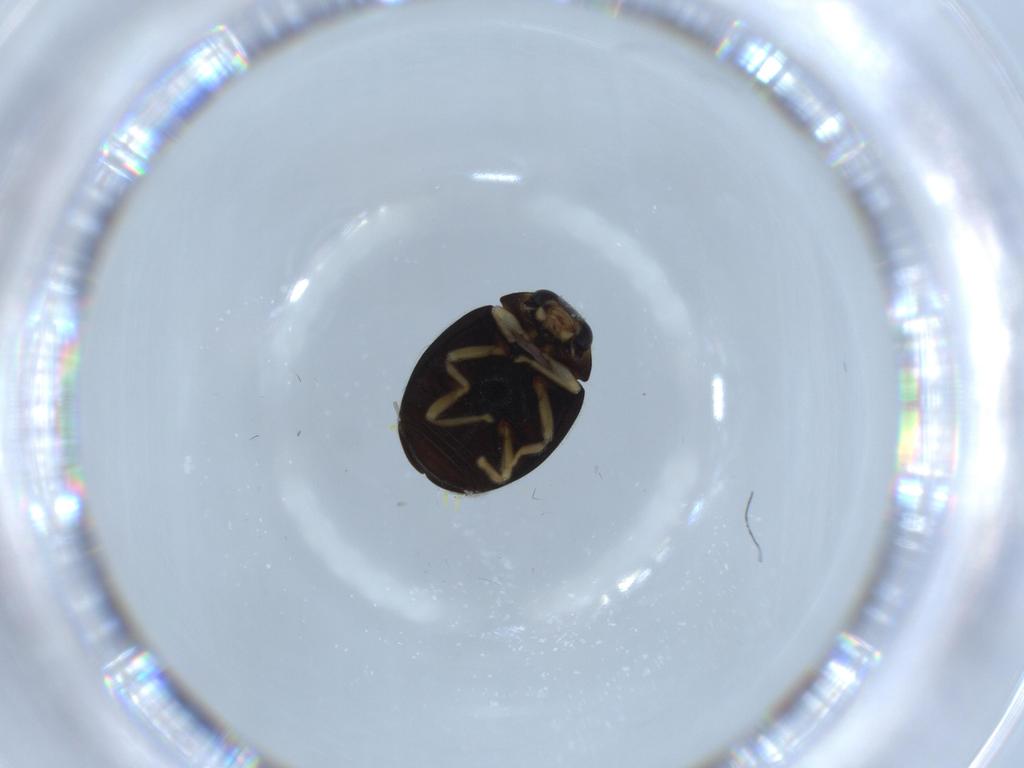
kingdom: Animalia
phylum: Arthropoda
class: Insecta
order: Coleoptera
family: Coccinellidae
